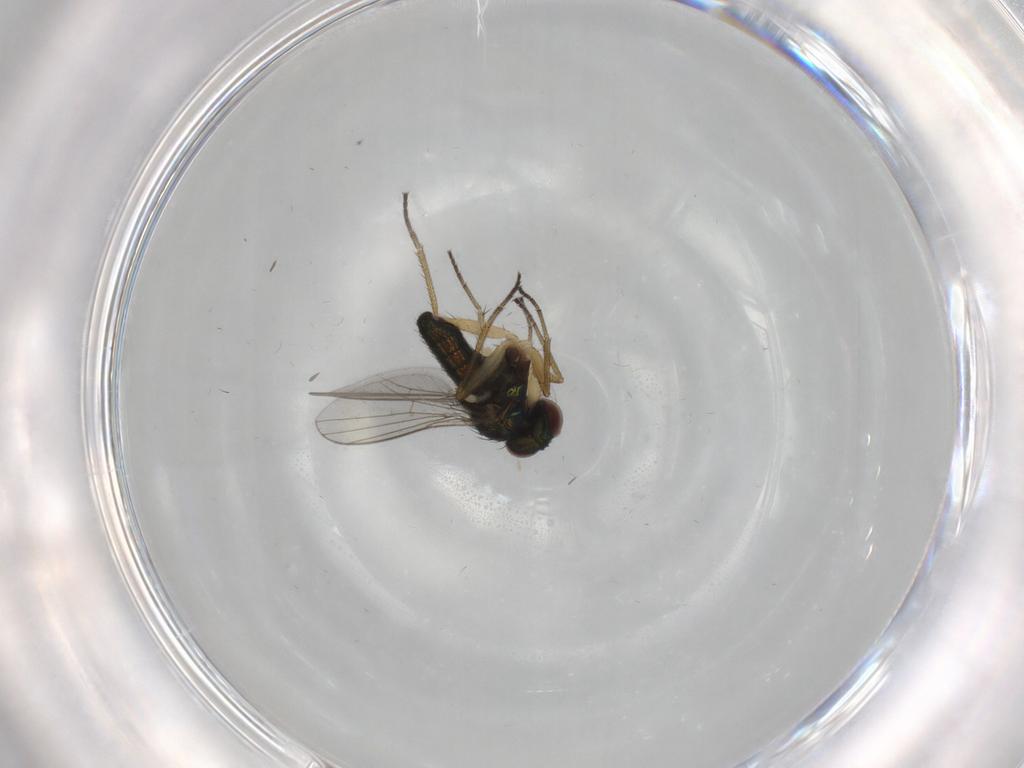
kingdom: Animalia
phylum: Arthropoda
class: Insecta
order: Diptera
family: Dolichopodidae
